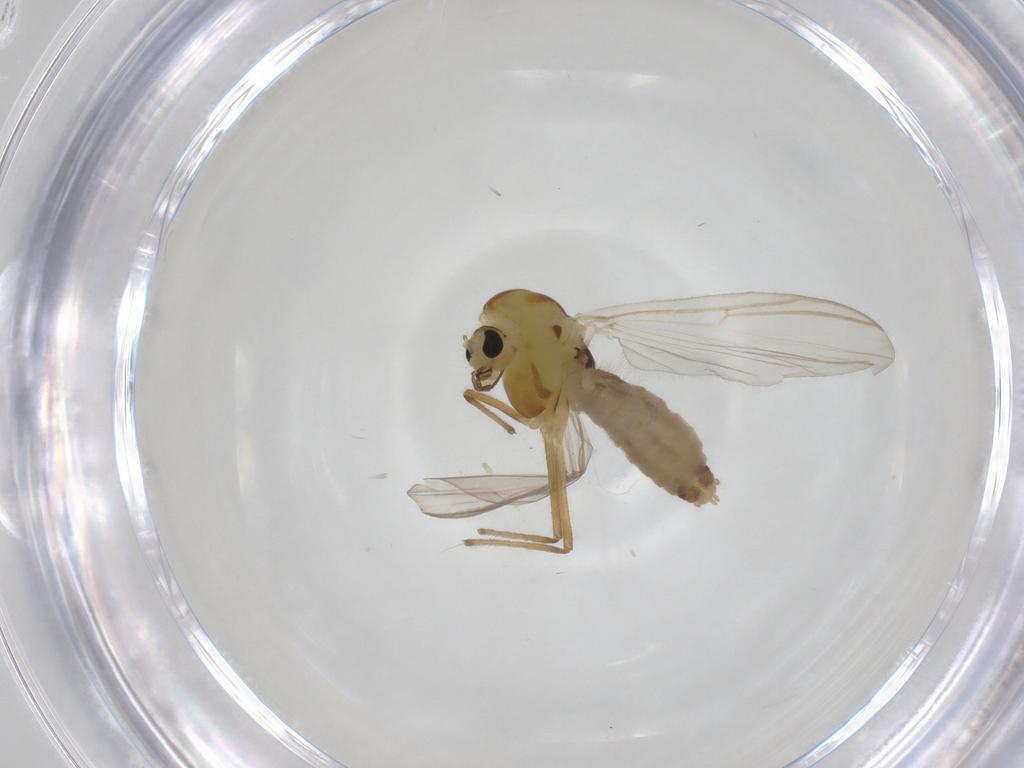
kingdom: Animalia
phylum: Arthropoda
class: Insecta
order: Diptera
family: Chironomidae
